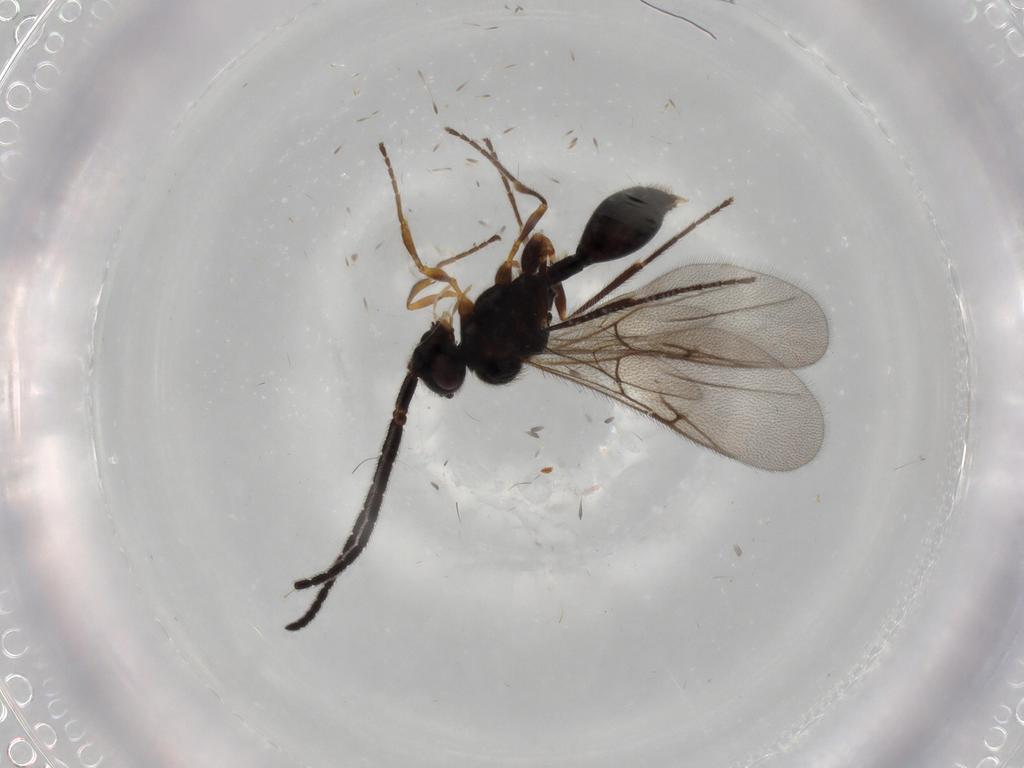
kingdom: Animalia
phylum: Arthropoda
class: Insecta
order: Hymenoptera
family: Diapriidae
